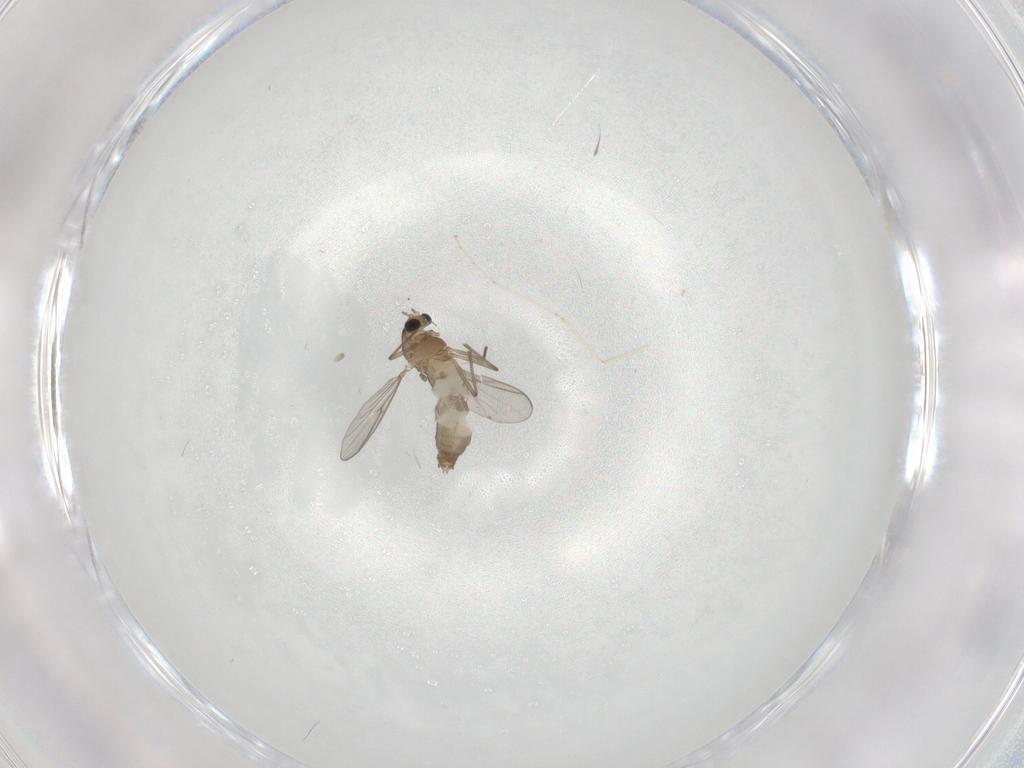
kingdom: Animalia
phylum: Arthropoda
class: Insecta
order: Diptera
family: Chironomidae
